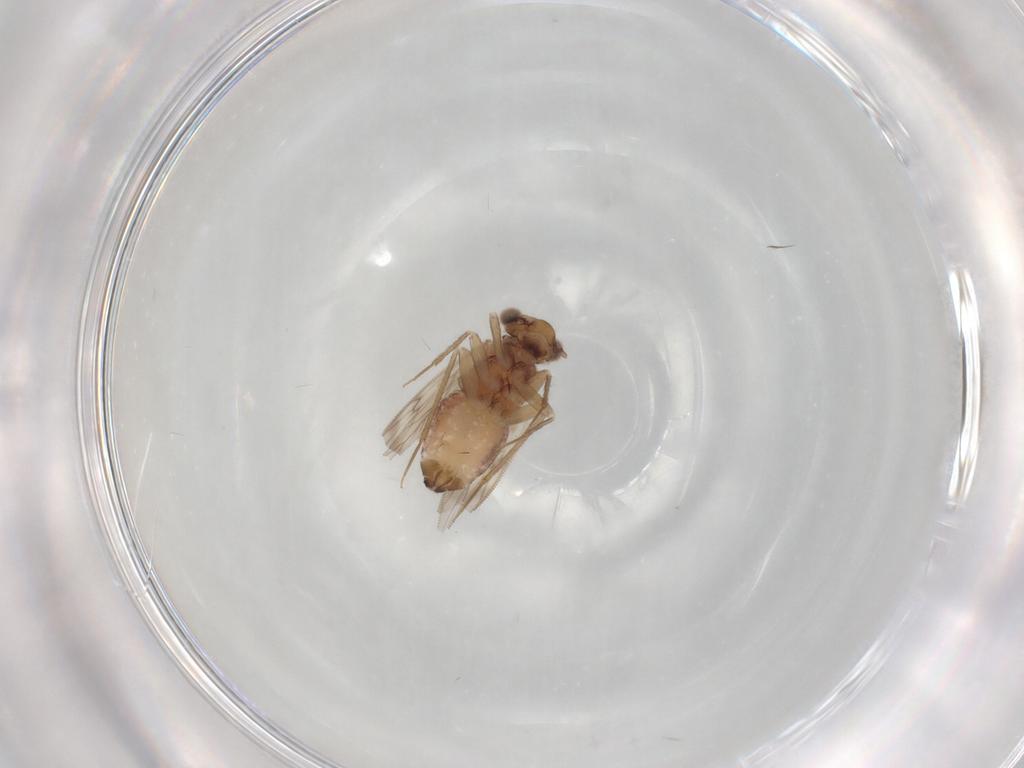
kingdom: Animalia
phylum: Arthropoda
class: Insecta
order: Psocodea
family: Lepidopsocidae
